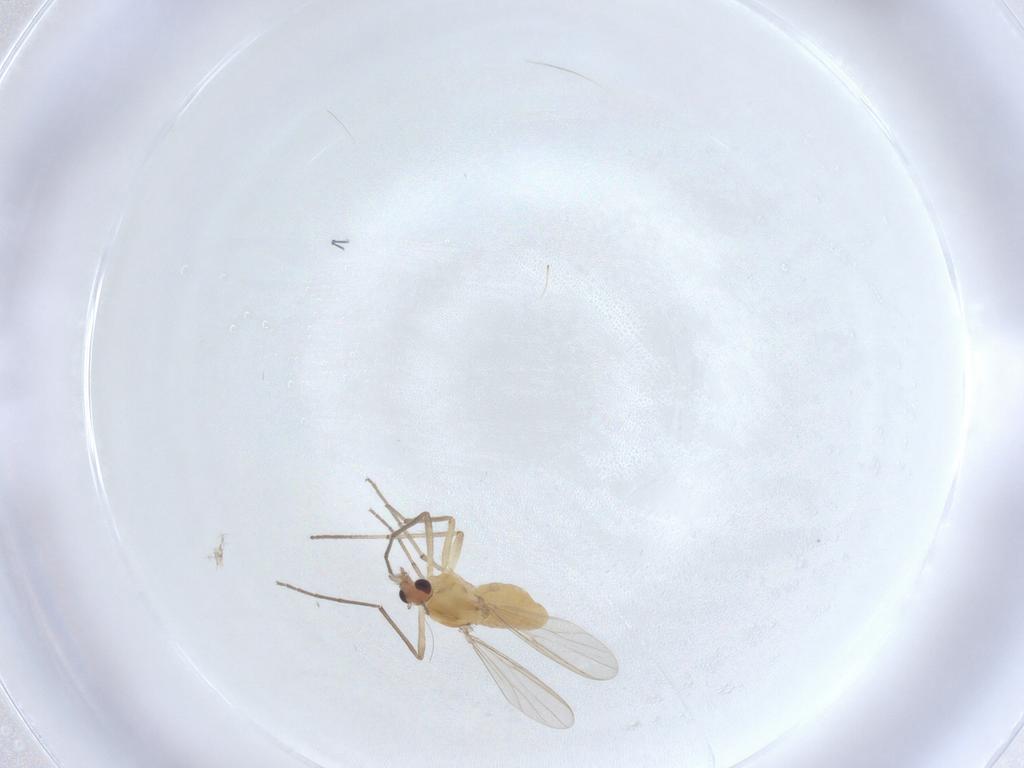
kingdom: Animalia
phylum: Arthropoda
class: Insecta
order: Diptera
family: Chironomidae
